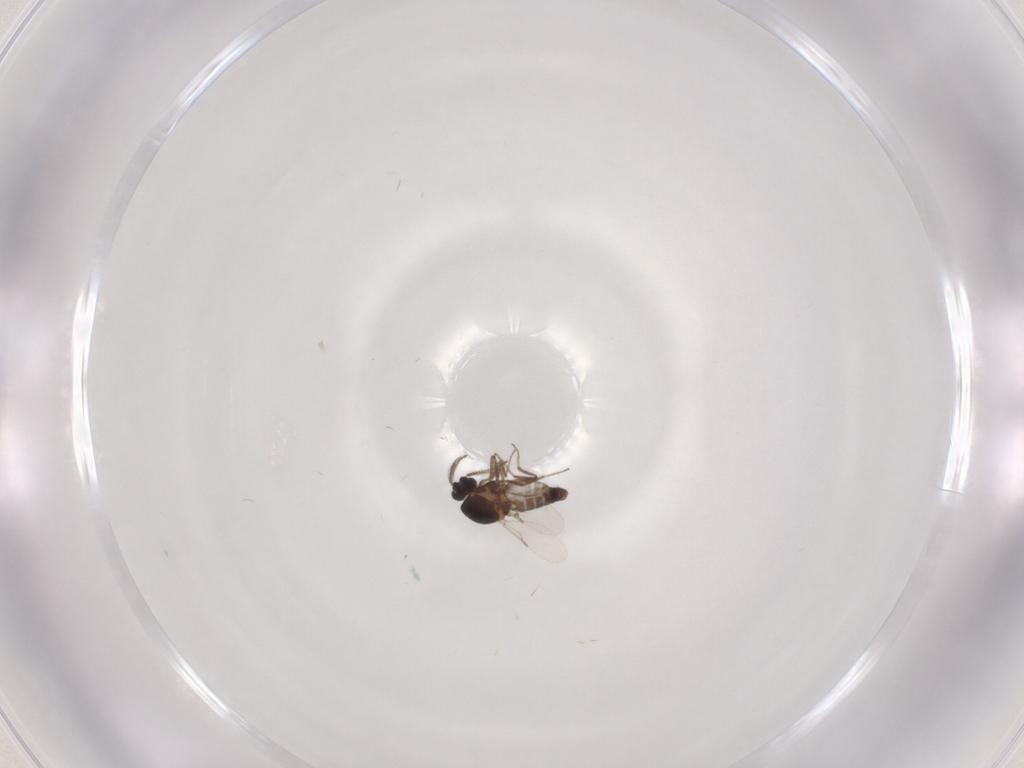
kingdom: Animalia
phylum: Arthropoda
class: Insecta
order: Diptera
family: Ceratopogonidae
